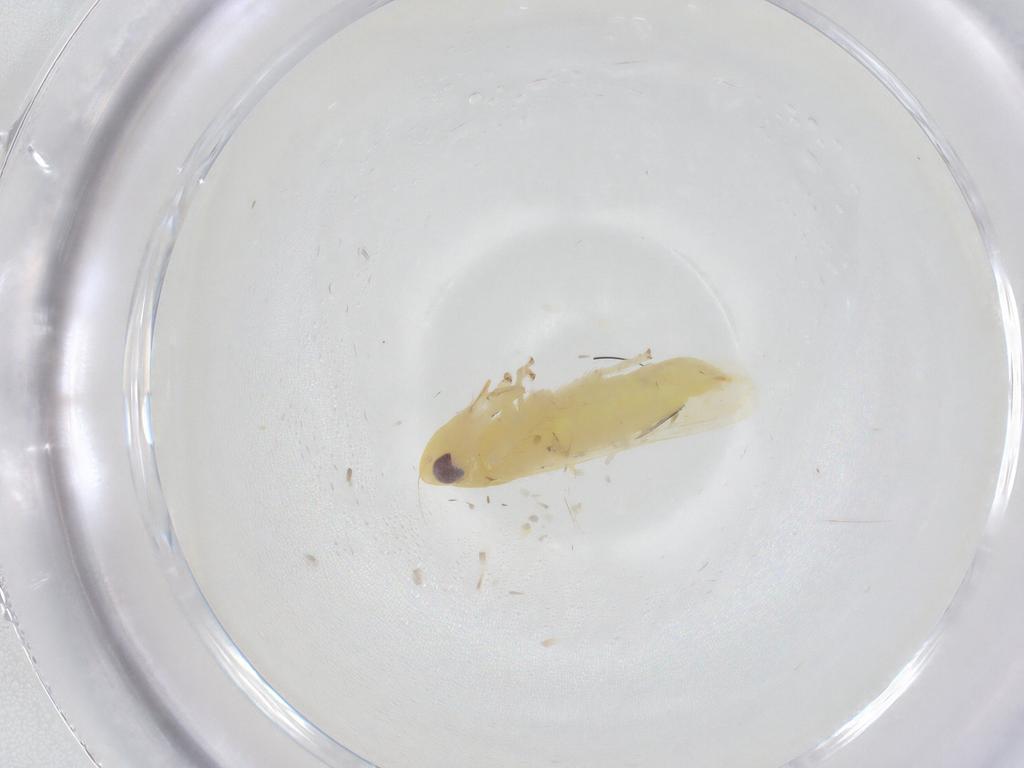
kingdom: Animalia
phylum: Arthropoda
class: Insecta
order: Hemiptera
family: Cicadellidae
